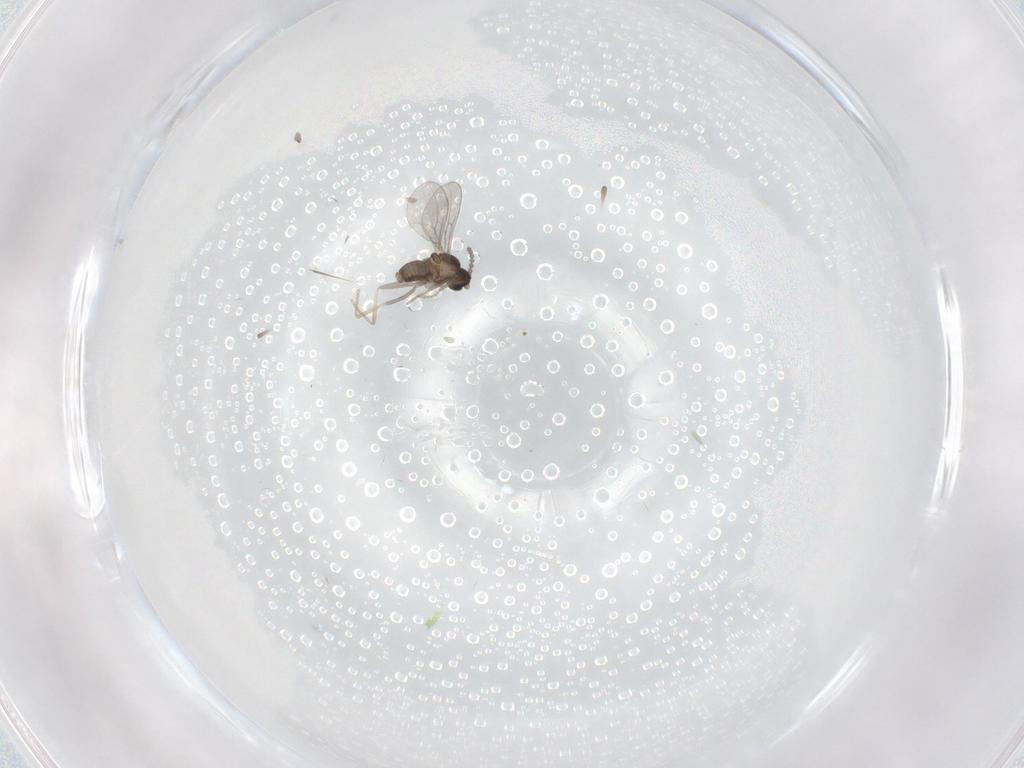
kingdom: Animalia
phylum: Arthropoda
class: Insecta
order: Diptera
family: Cecidomyiidae
